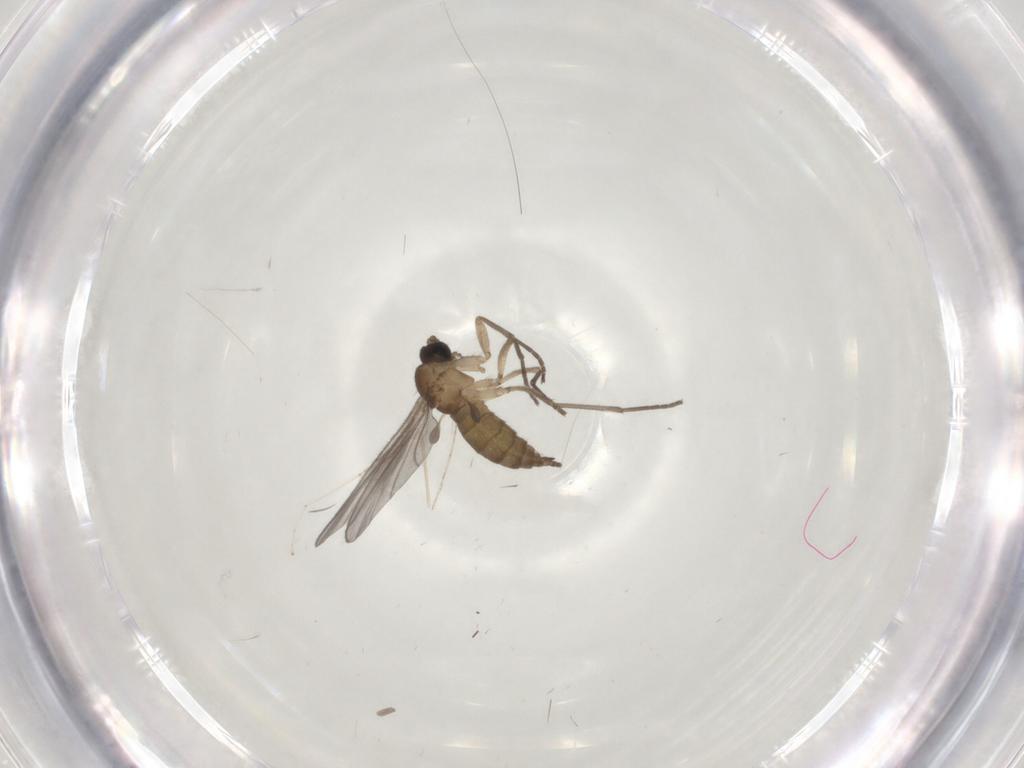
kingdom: Animalia
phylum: Arthropoda
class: Insecta
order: Diptera
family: Sciaridae
